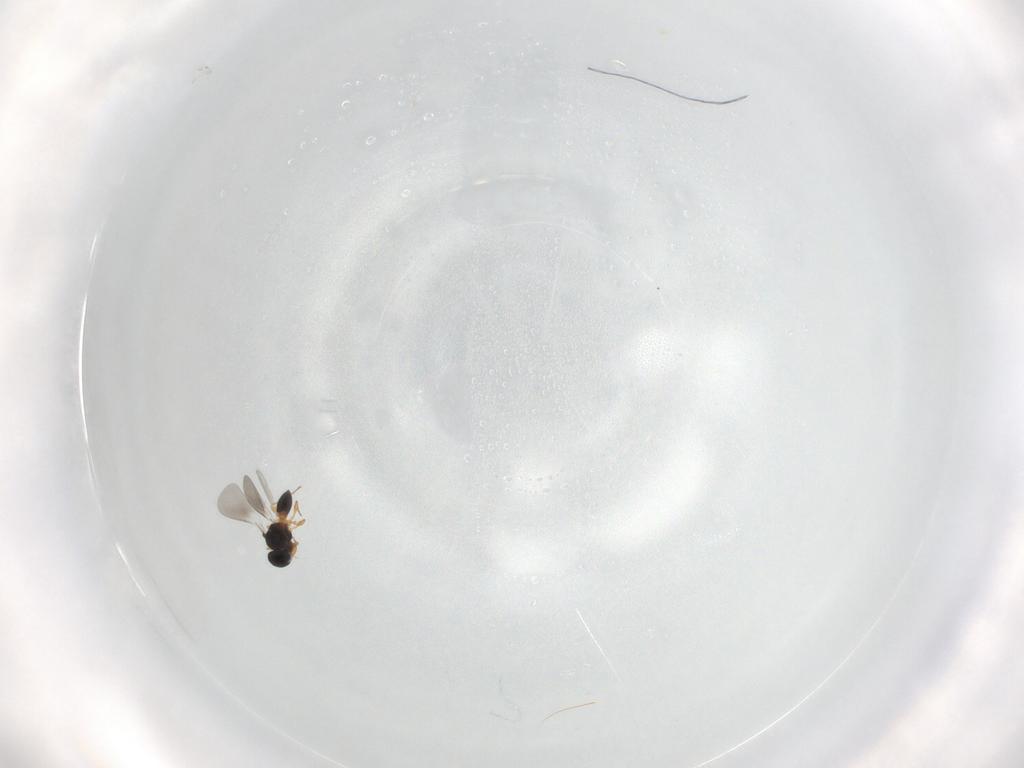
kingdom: Animalia
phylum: Arthropoda
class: Insecta
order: Hymenoptera
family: Platygastridae
